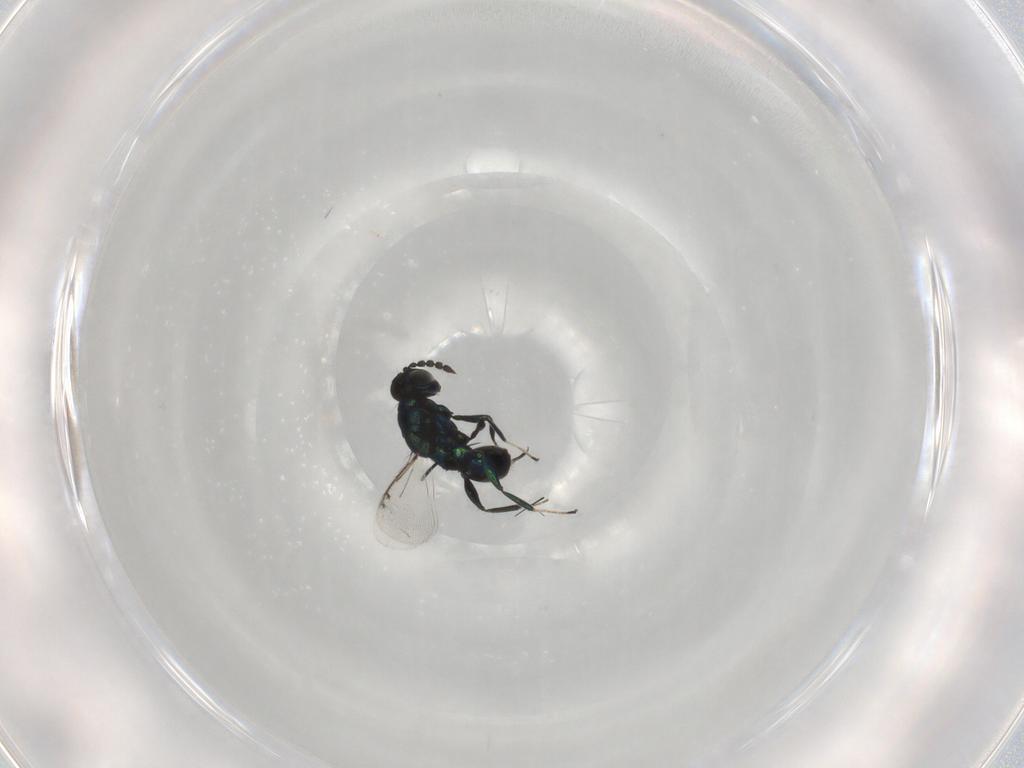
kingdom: Animalia
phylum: Arthropoda
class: Insecta
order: Hymenoptera
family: Eulophidae
